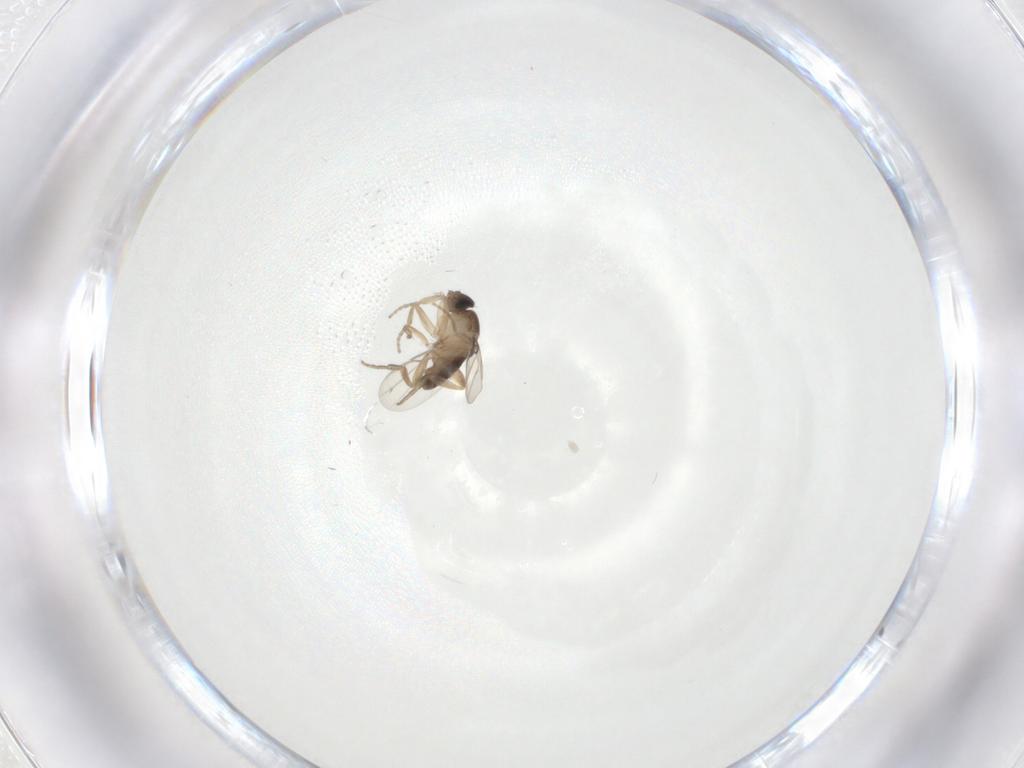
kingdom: Animalia
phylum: Arthropoda
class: Insecta
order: Diptera
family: Phoridae
